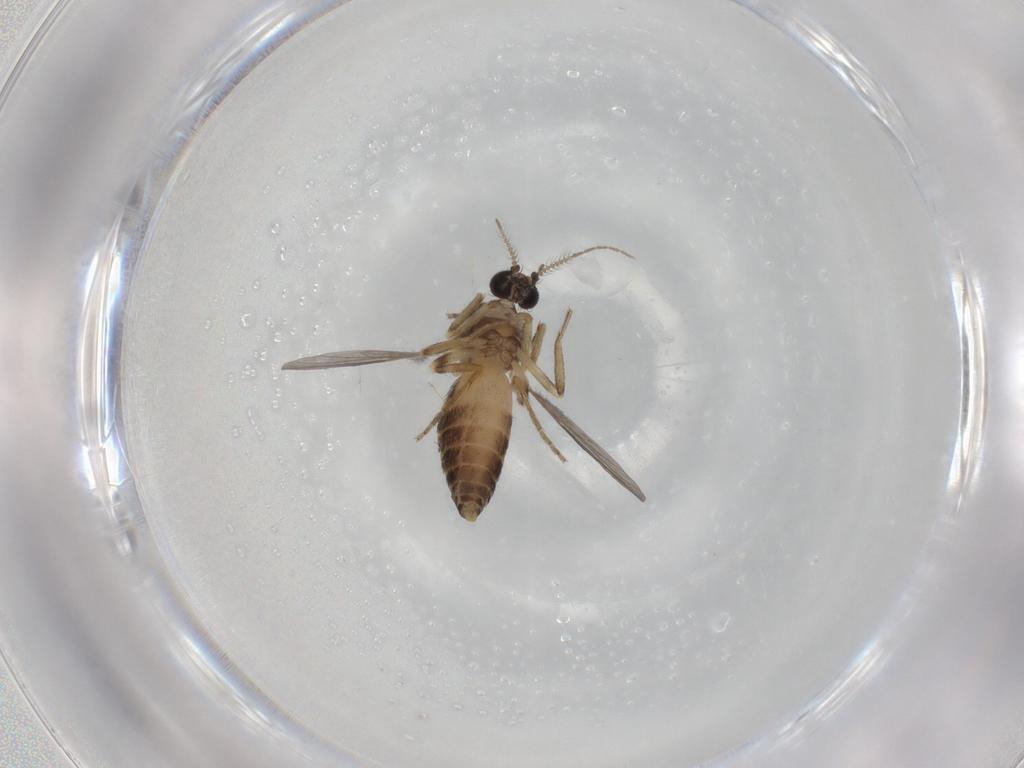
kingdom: Animalia
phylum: Arthropoda
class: Insecta
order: Diptera
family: Ceratopogonidae
